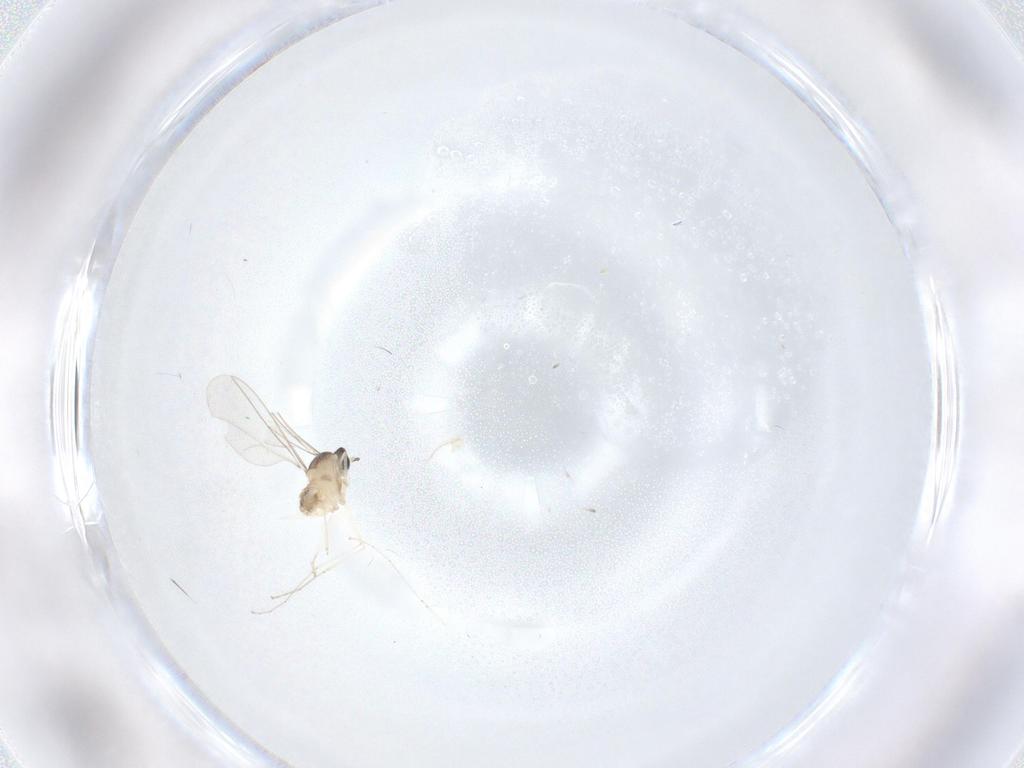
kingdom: Animalia
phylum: Arthropoda
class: Insecta
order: Diptera
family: Cecidomyiidae
